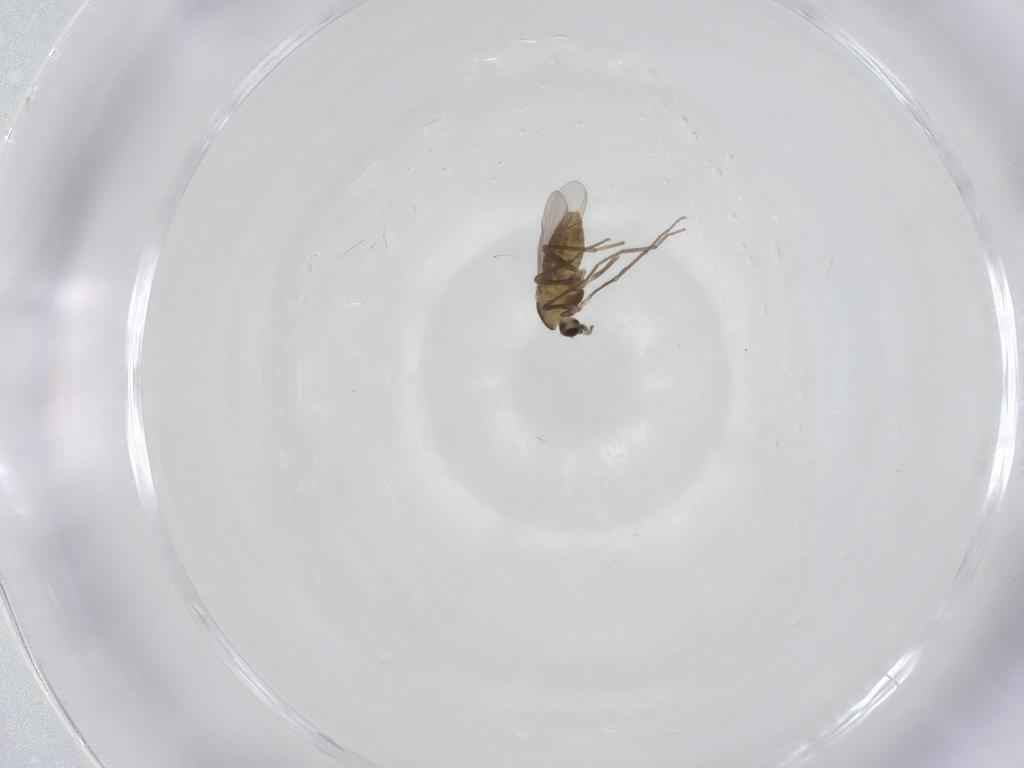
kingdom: Animalia
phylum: Arthropoda
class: Insecta
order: Diptera
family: Chironomidae
